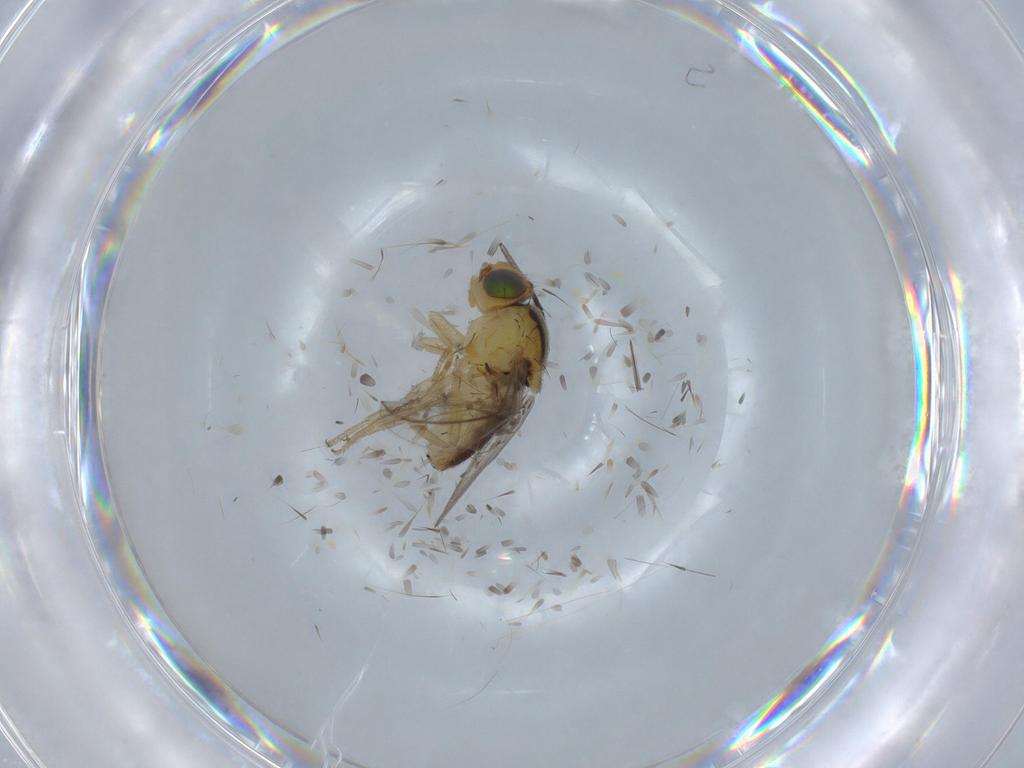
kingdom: Animalia
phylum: Arthropoda
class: Insecta
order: Diptera
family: Chloropidae
